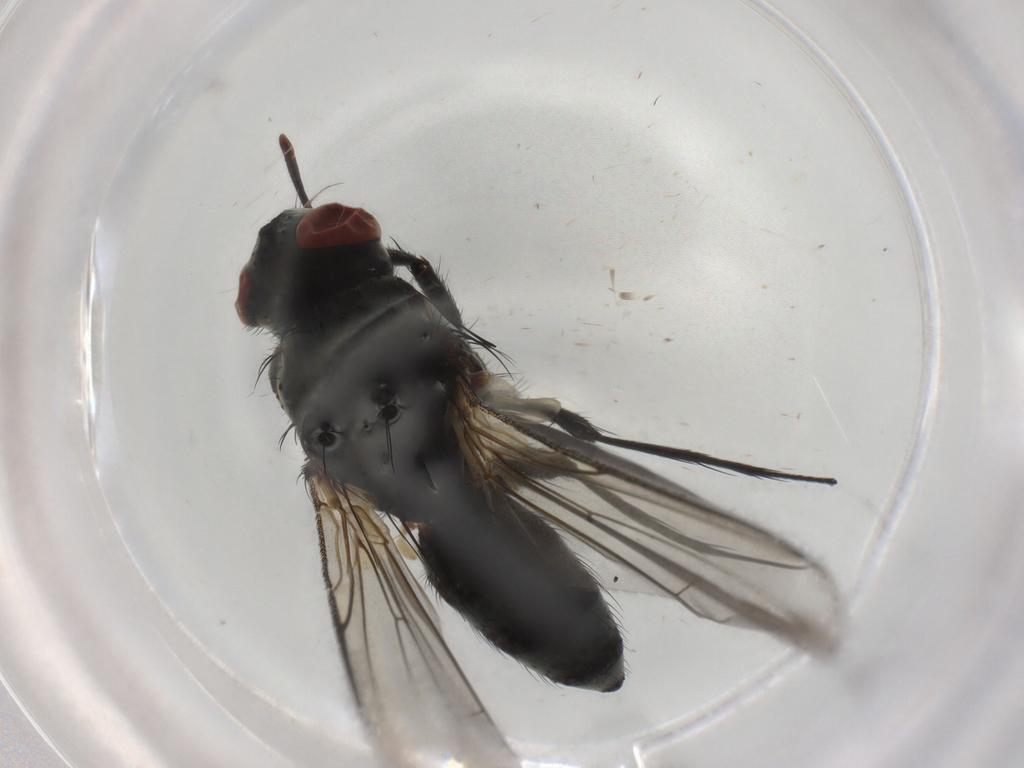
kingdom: Animalia
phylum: Arthropoda
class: Insecta
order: Diptera
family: Tachinidae
